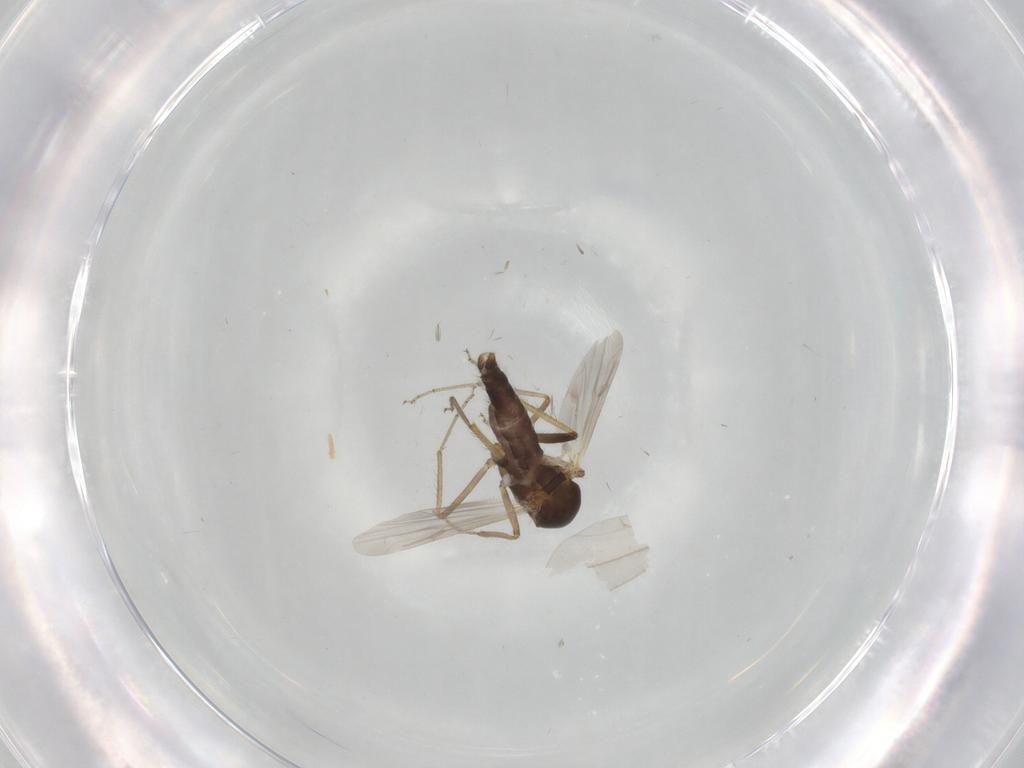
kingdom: Animalia
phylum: Arthropoda
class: Insecta
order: Diptera
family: Ceratopogonidae
